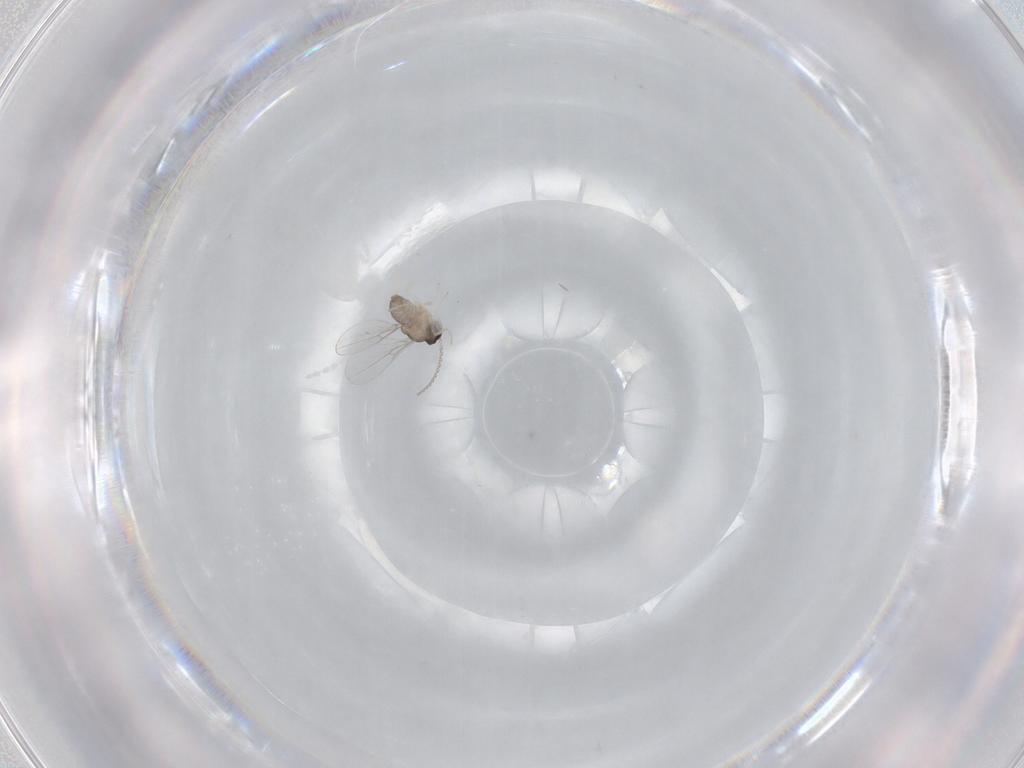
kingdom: Animalia
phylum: Arthropoda
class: Insecta
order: Diptera
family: Cecidomyiidae
